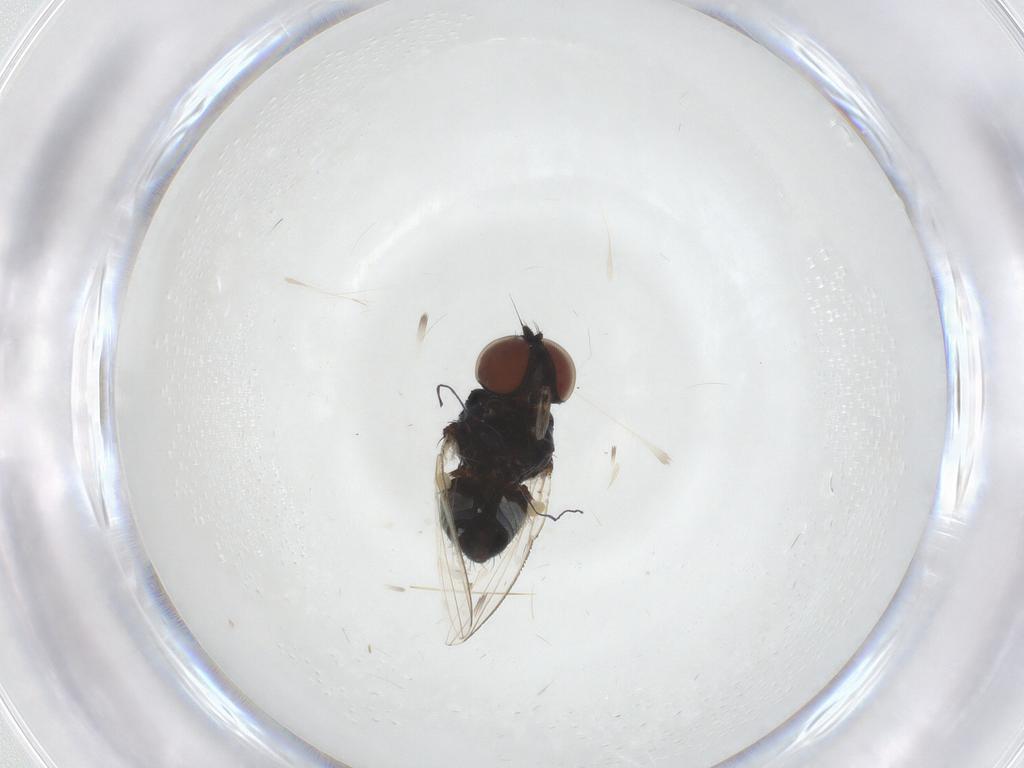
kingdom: Animalia
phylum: Arthropoda
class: Insecta
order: Diptera
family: Milichiidae
